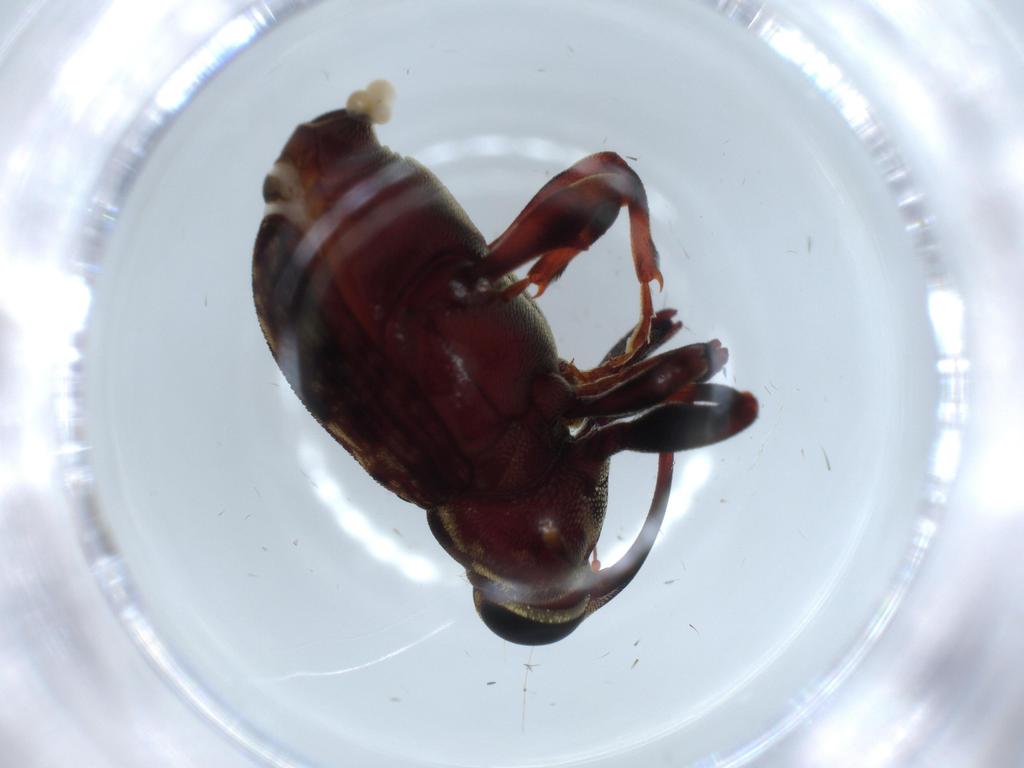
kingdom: Animalia
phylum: Arthropoda
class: Insecta
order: Coleoptera
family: Curculionidae
